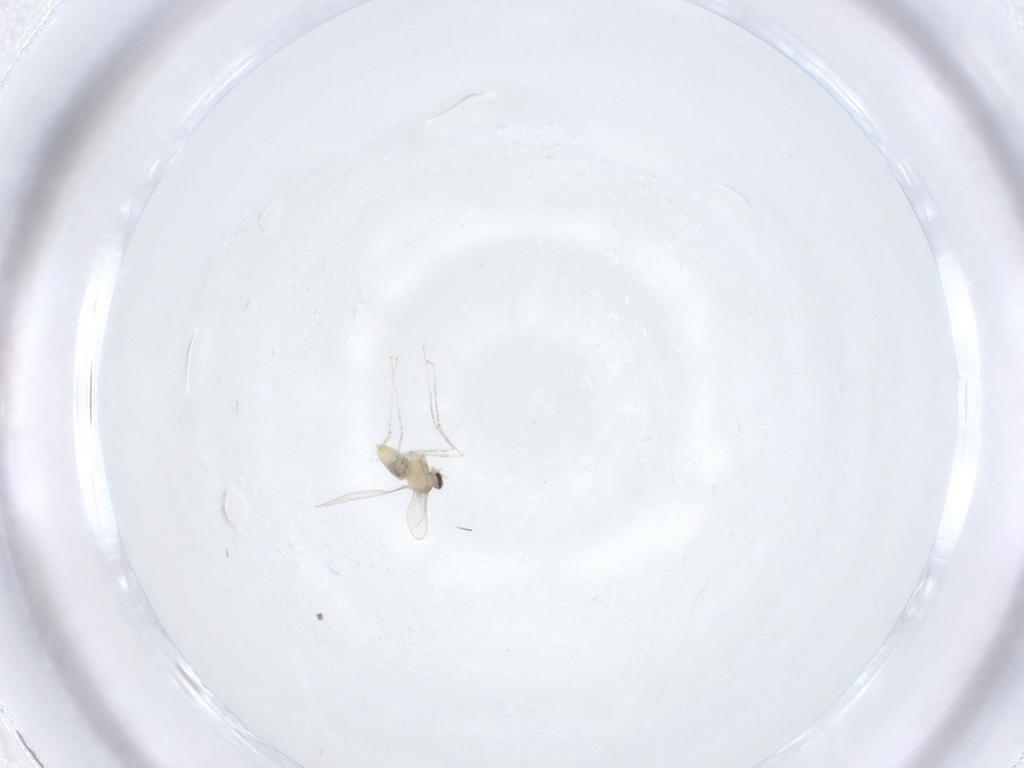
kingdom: Animalia
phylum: Arthropoda
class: Insecta
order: Diptera
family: Cecidomyiidae
